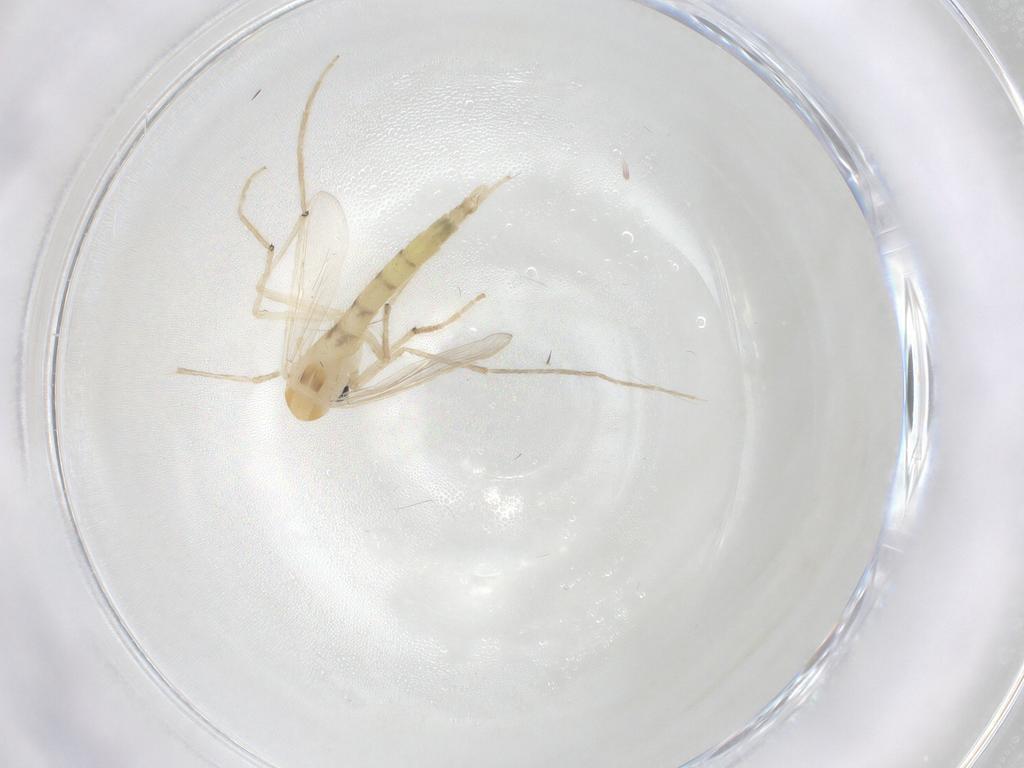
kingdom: Animalia
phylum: Arthropoda
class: Insecta
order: Diptera
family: Chironomidae
